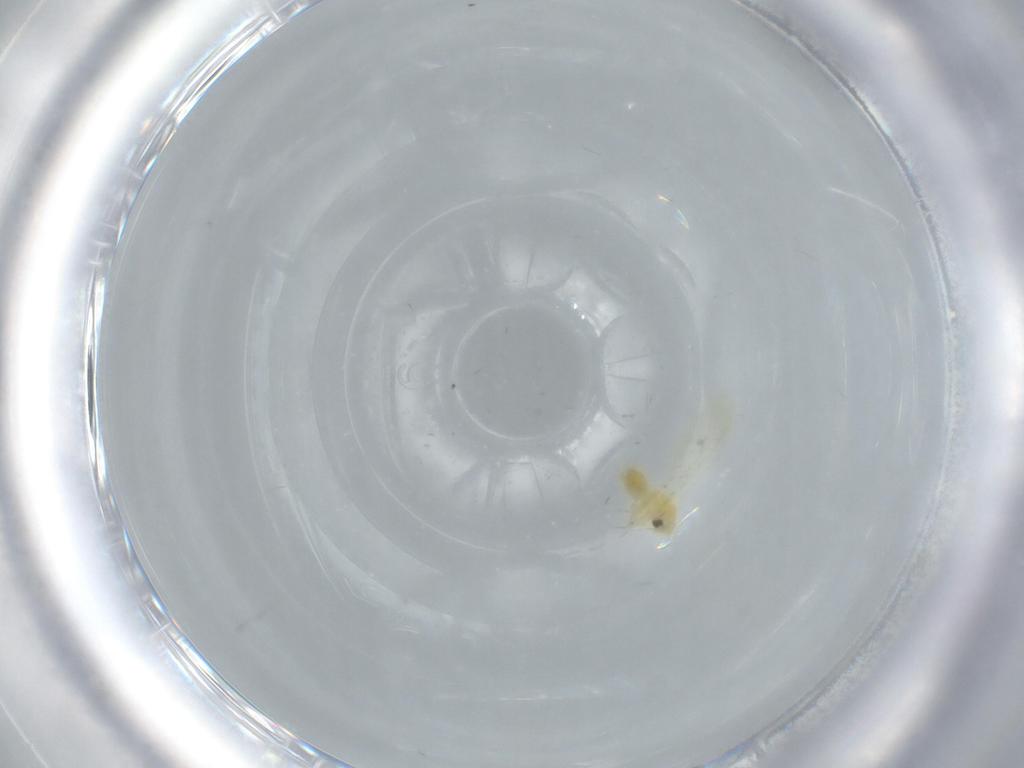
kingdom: Animalia
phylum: Arthropoda
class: Insecta
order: Hemiptera
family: Aleyrodidae
